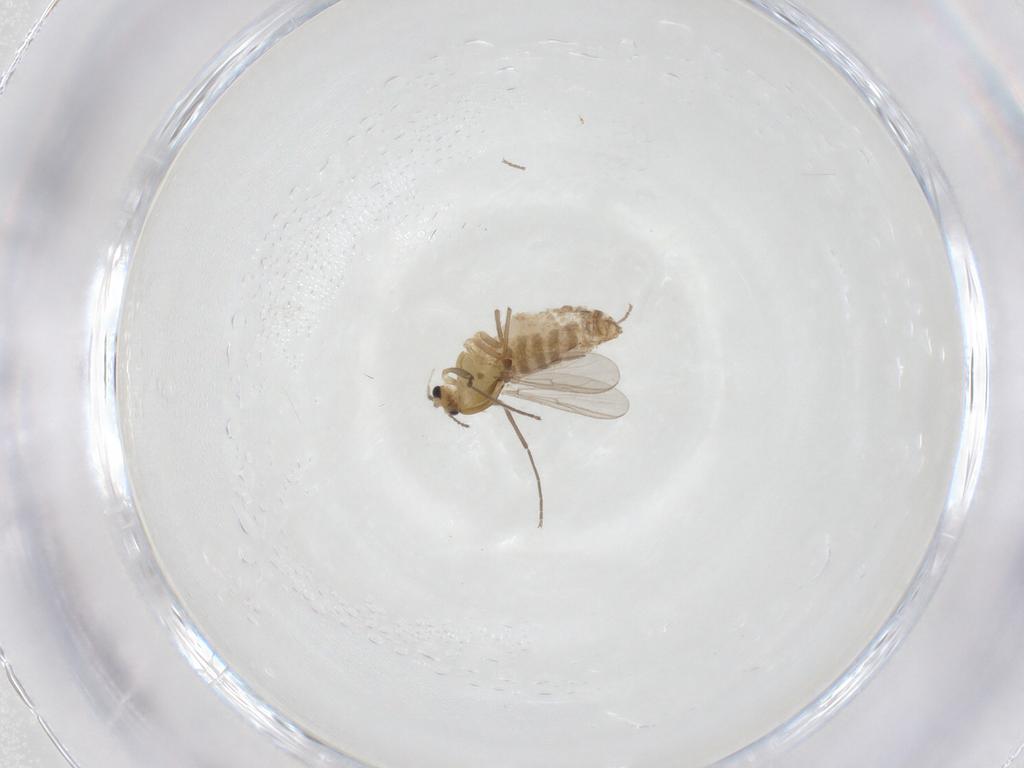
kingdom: Animalia
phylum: Arthropoda
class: Insecta
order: Diptera
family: Chironomidae
